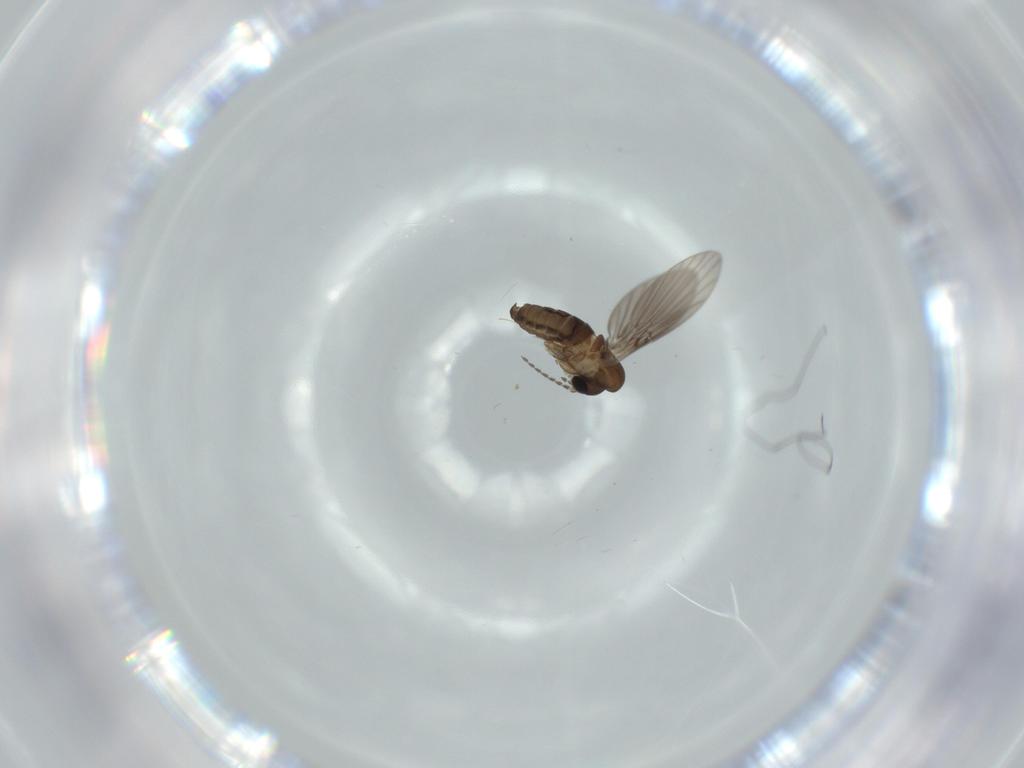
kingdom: Animalia
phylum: Arthropoda
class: Insecta
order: Diptera
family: Psychodidae
